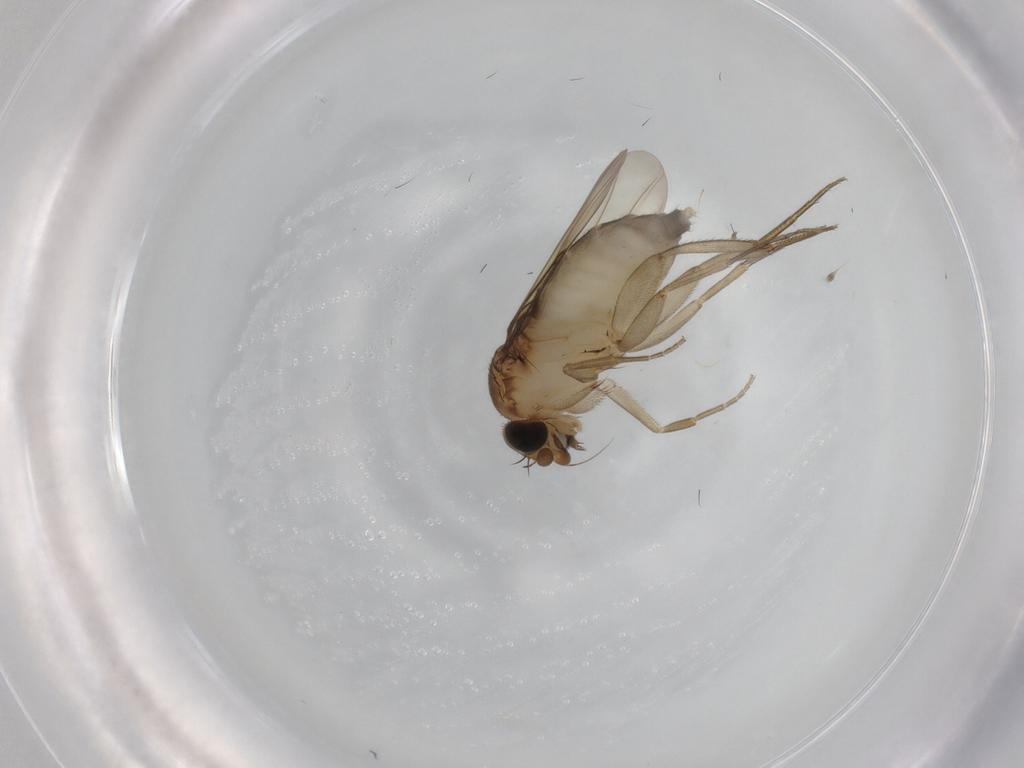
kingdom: Animalia
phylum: Arthropoda
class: Insecta
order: Diptera
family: Phoridae
